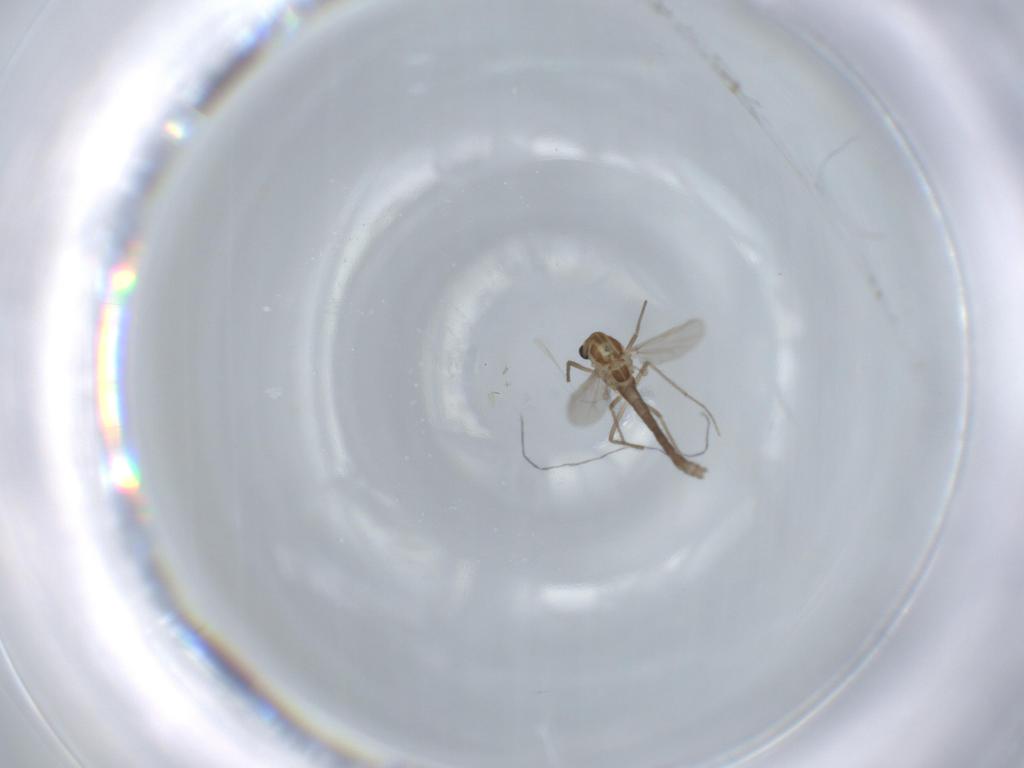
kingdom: Animalia
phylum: Arthropoda
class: Insecta
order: Diptera
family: Chironomidae
